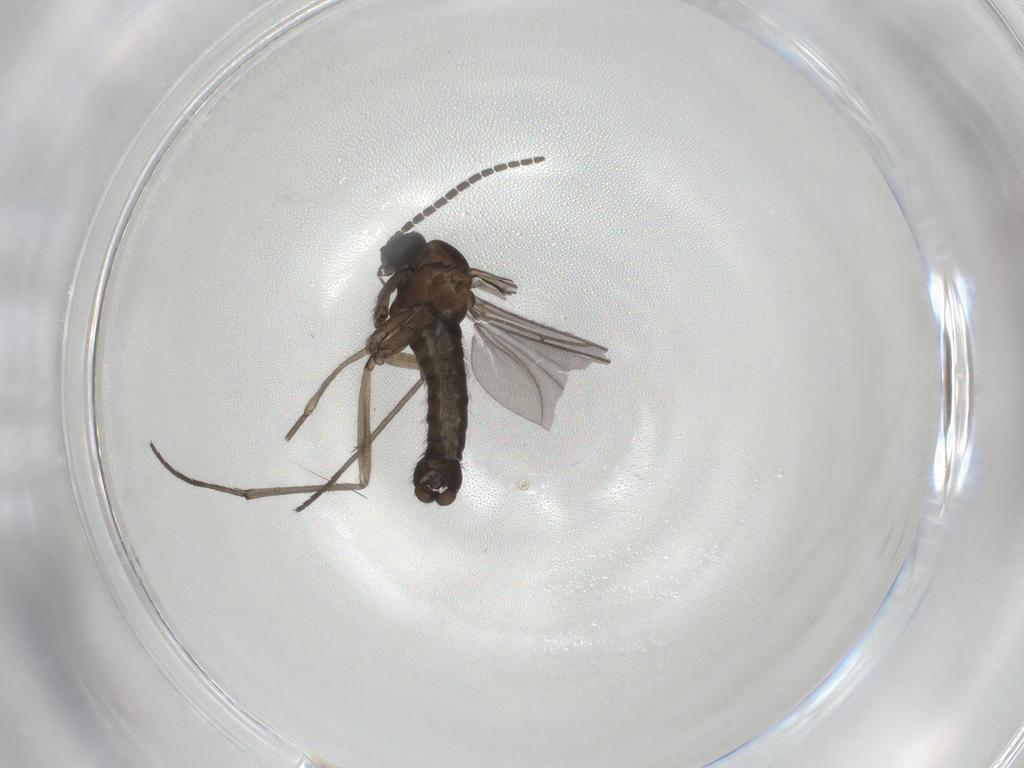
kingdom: Animalia
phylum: Arthropoda
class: Insecta
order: Diptera
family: Sciaridae
